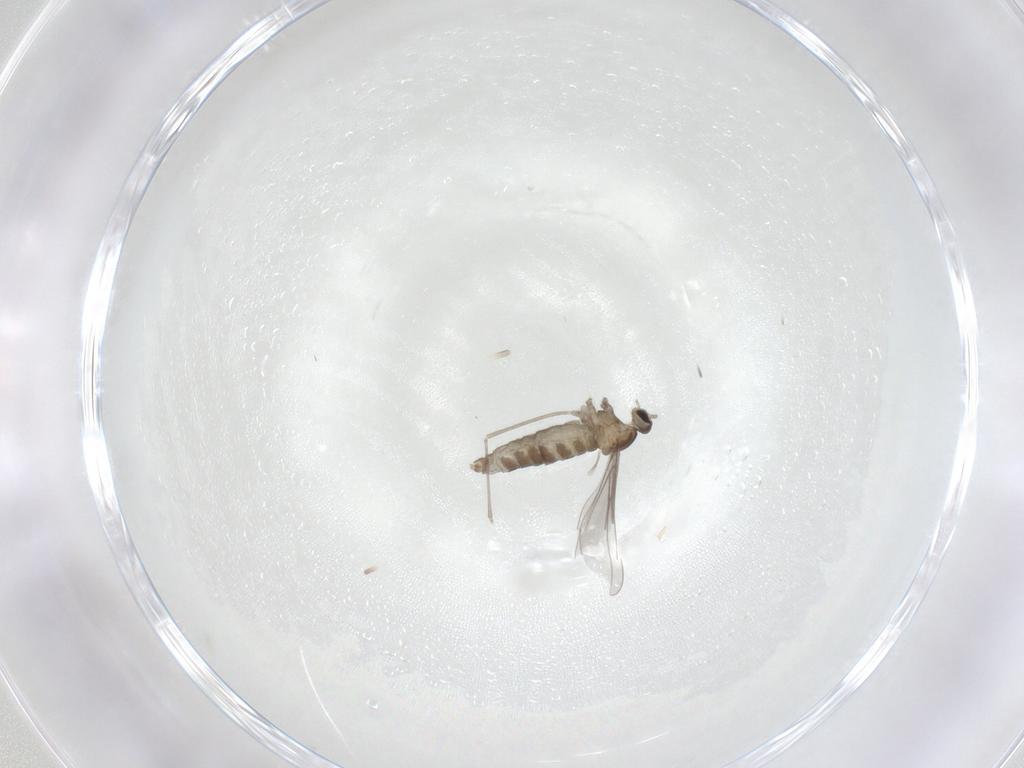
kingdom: Animalia
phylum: Arthropoda
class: Insecta
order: Diptera
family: Cecidomyiidae
